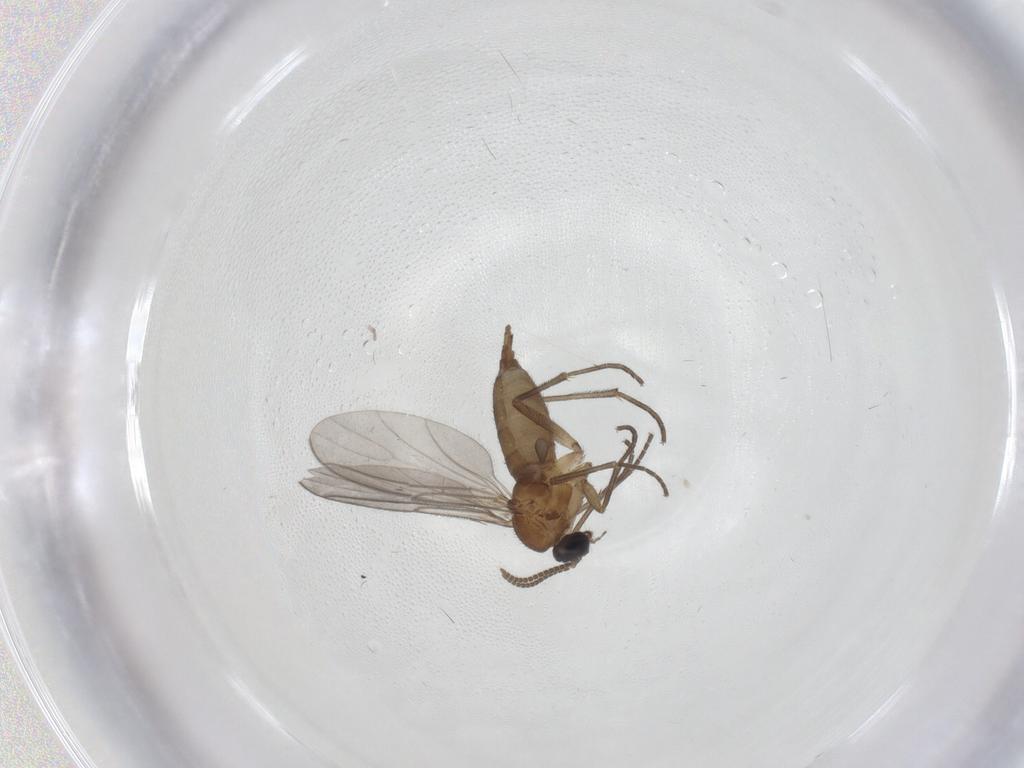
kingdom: Animalia
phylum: Arthropoda
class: Insecta
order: Diptera
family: Sciaridae
